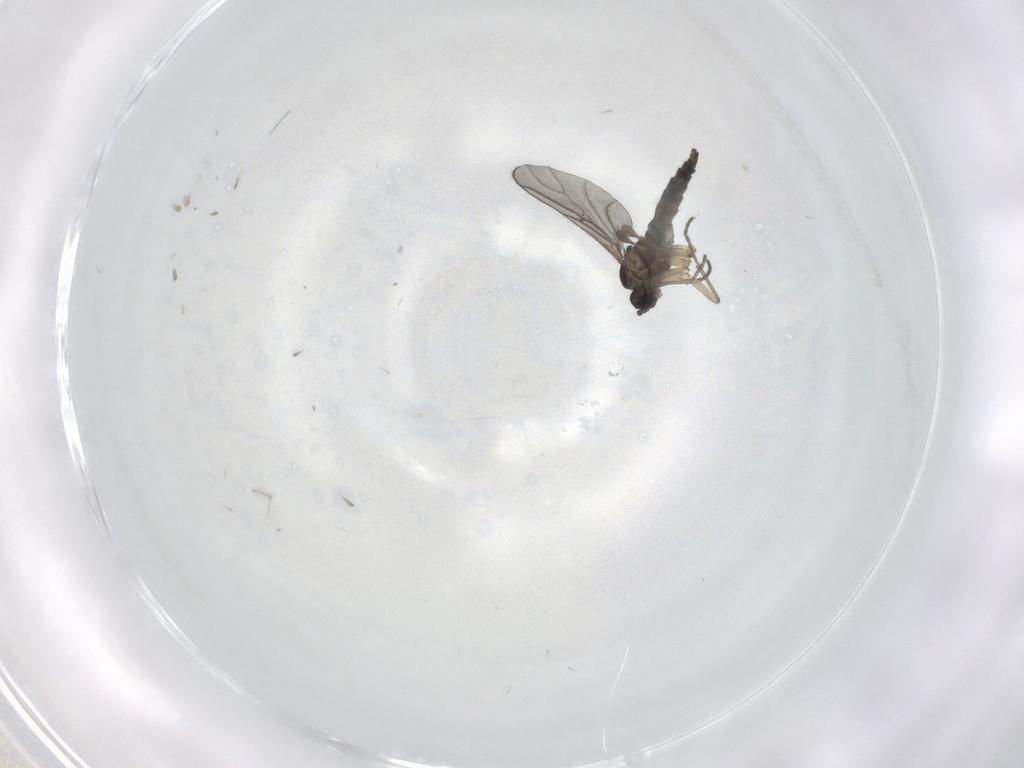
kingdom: Animalia
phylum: Arthropoda
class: Insecta
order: Diptera
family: Sciaridae
